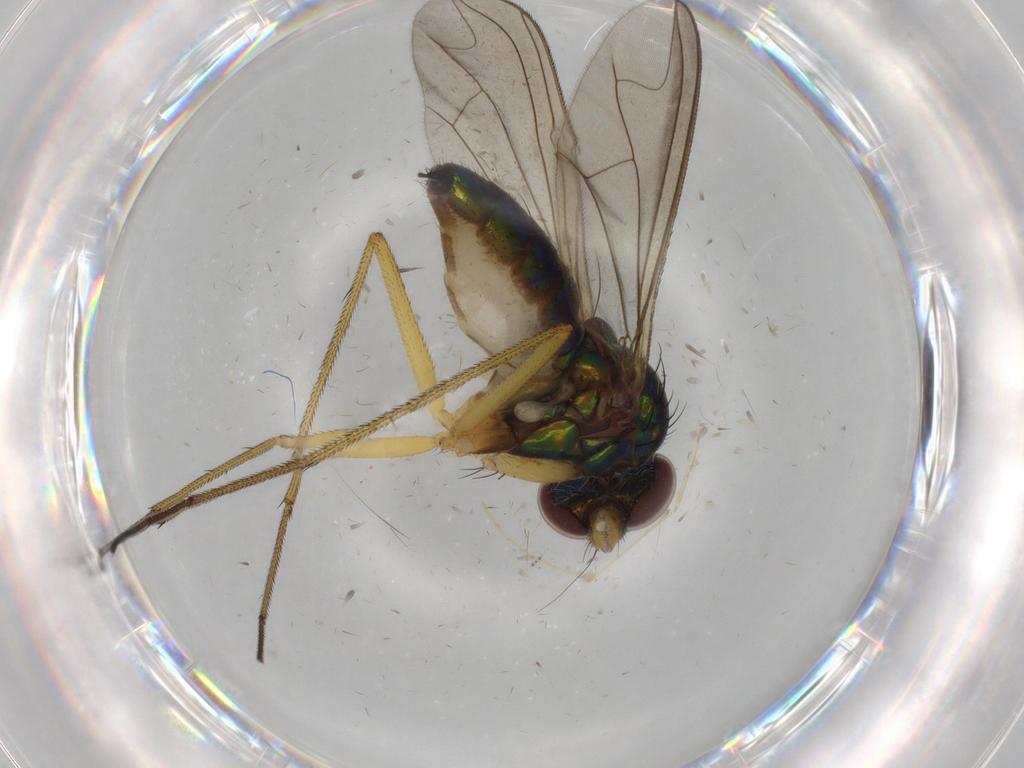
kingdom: Animalia
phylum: Arthropoda
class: Insecta
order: Diptera
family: Dolichopodidae
